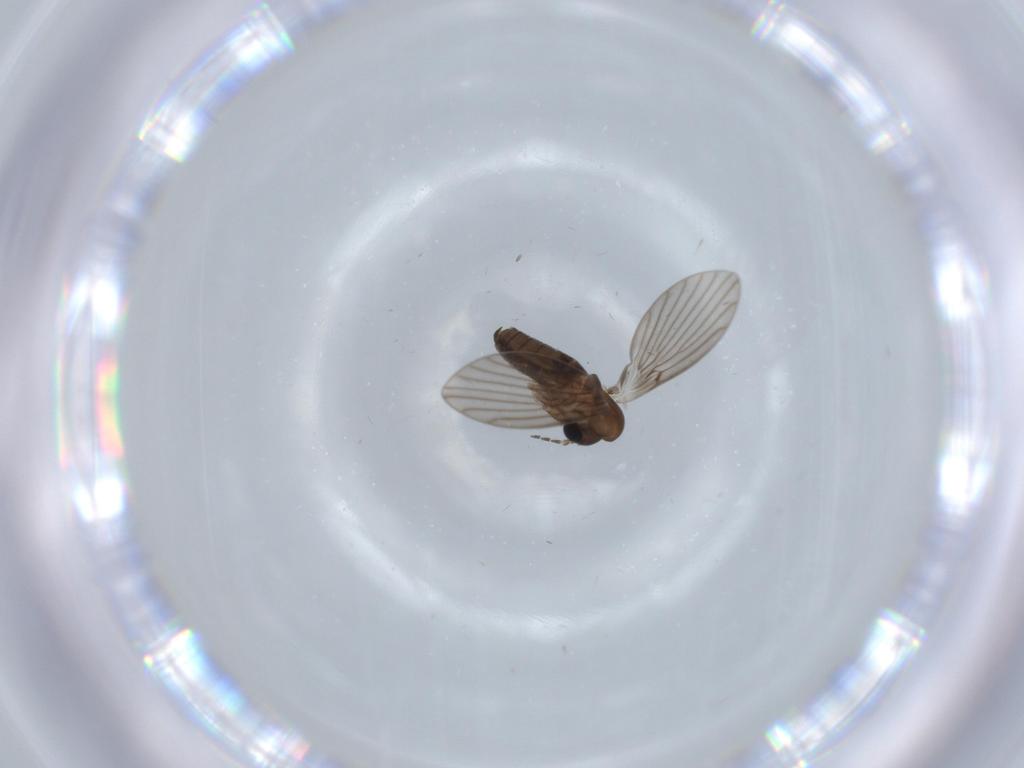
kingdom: Animalia
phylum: Arthropoda
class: Insecta
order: Diptera
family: Psychodidae
